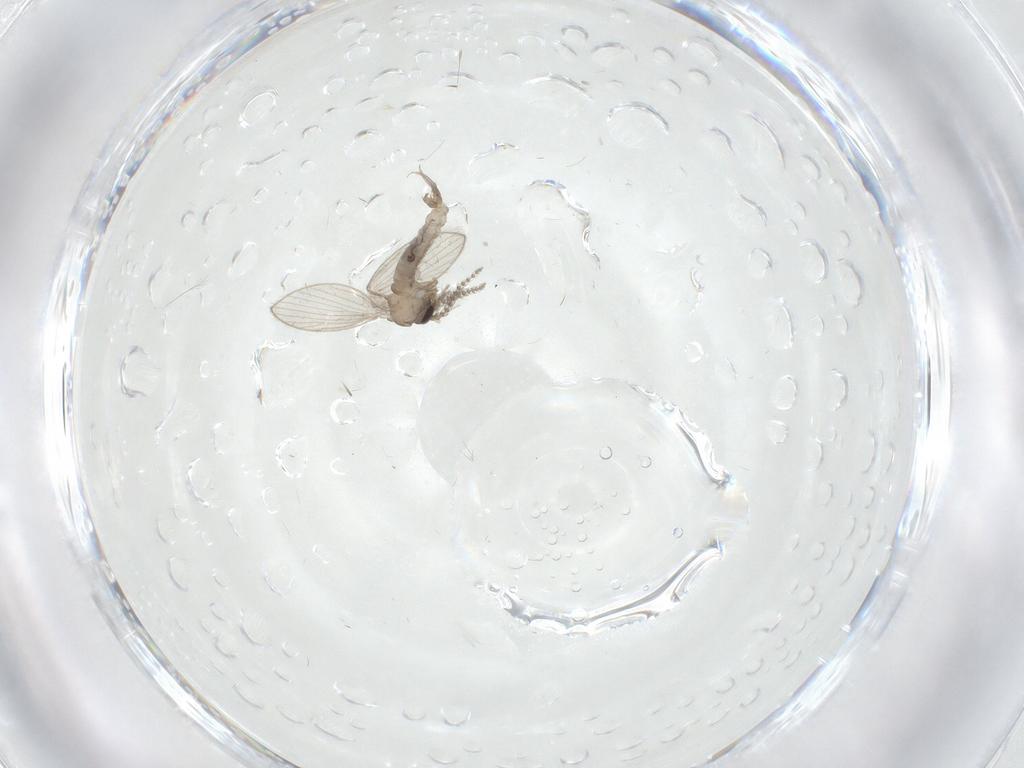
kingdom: Animalia
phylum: Arthropoda
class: Insecta
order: Diptera
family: Psychodidae
